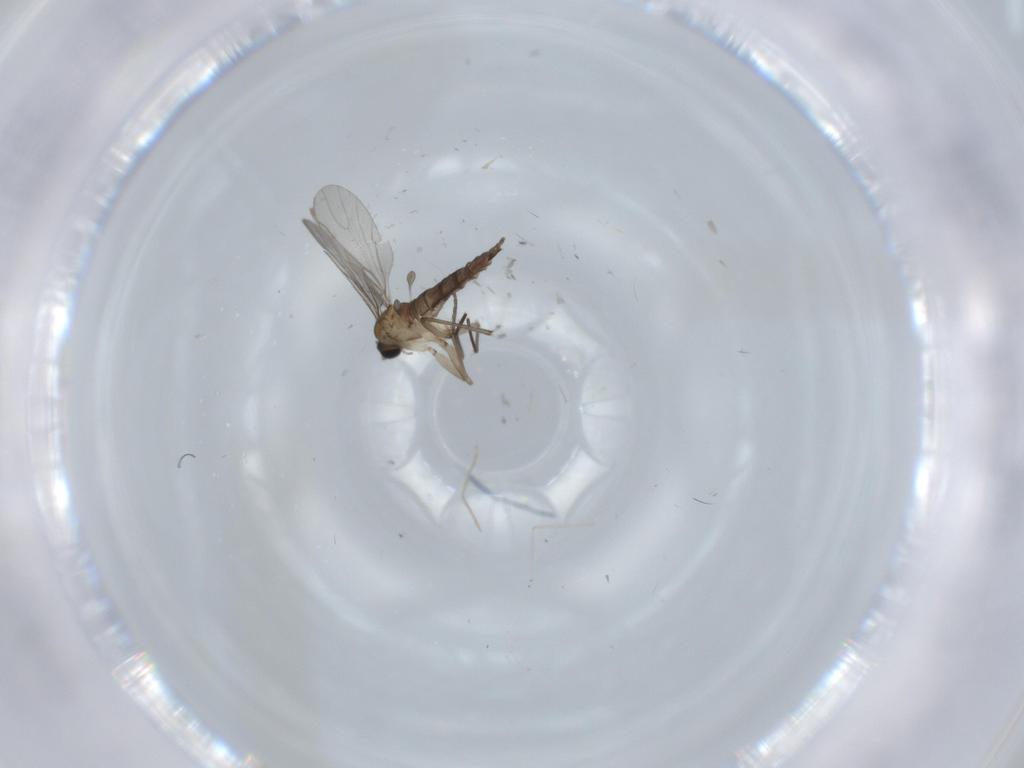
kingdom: Animalia
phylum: Arthropoda
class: Insecta
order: Diptera
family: Sciaridae
